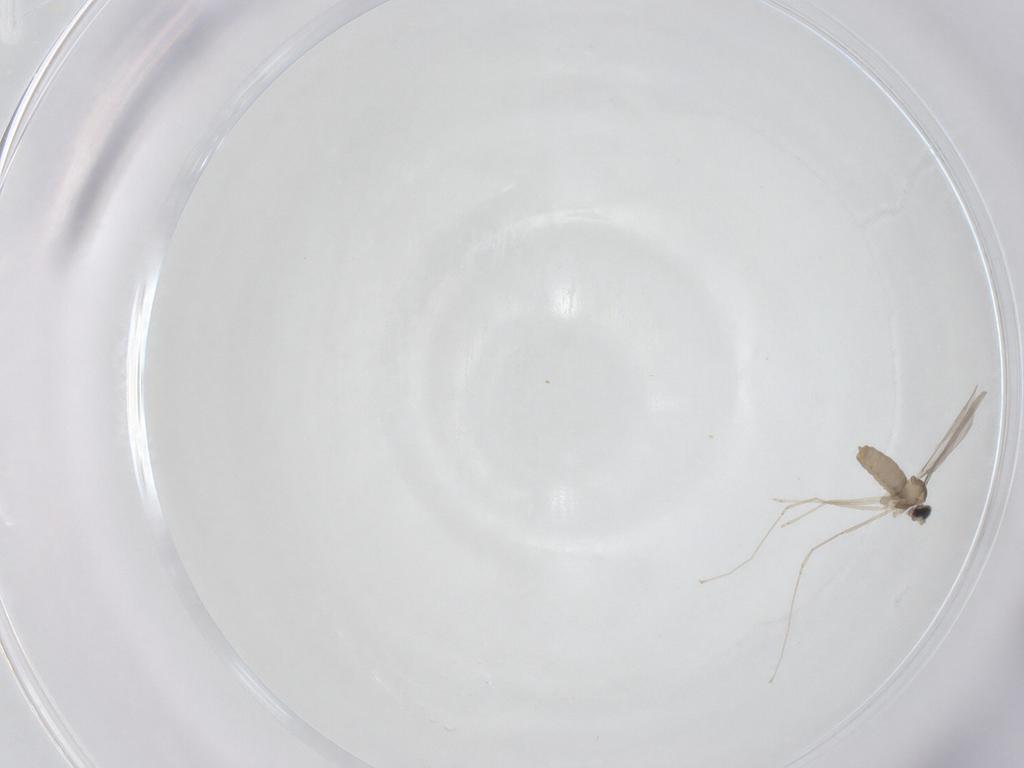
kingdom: Animalia
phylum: Arthropoda
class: Insecta
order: Diptera
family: Cecidomyiidae
